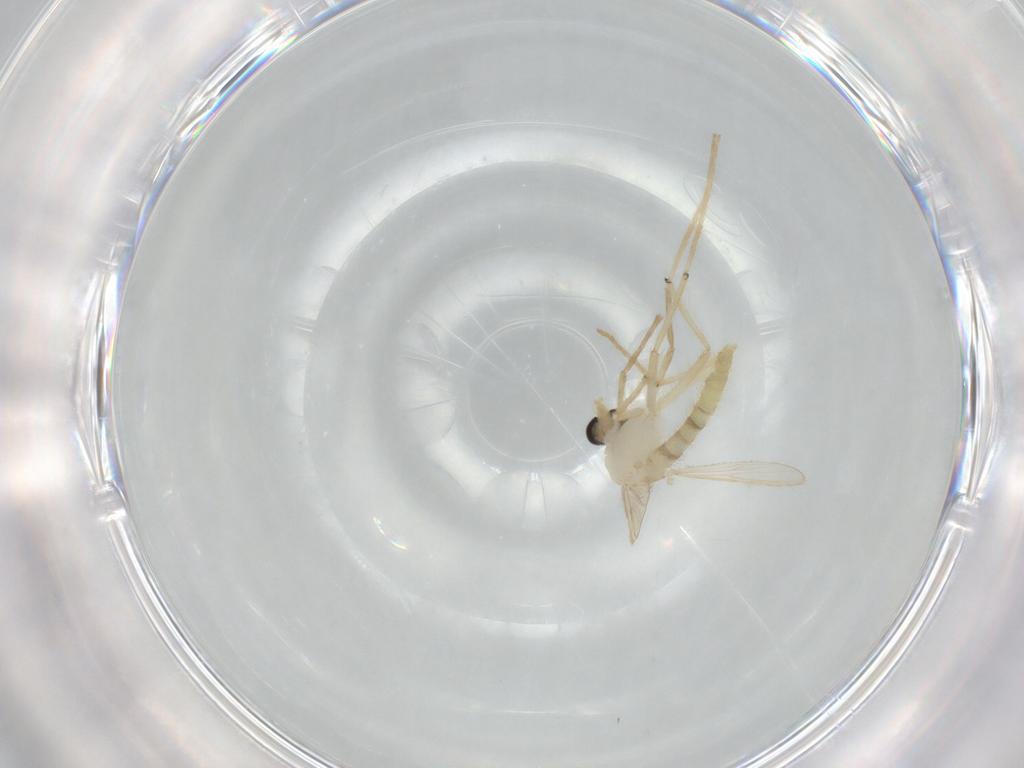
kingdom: Animalia
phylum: Arthropoda
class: Insecta
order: Diptera
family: Chironomidae
